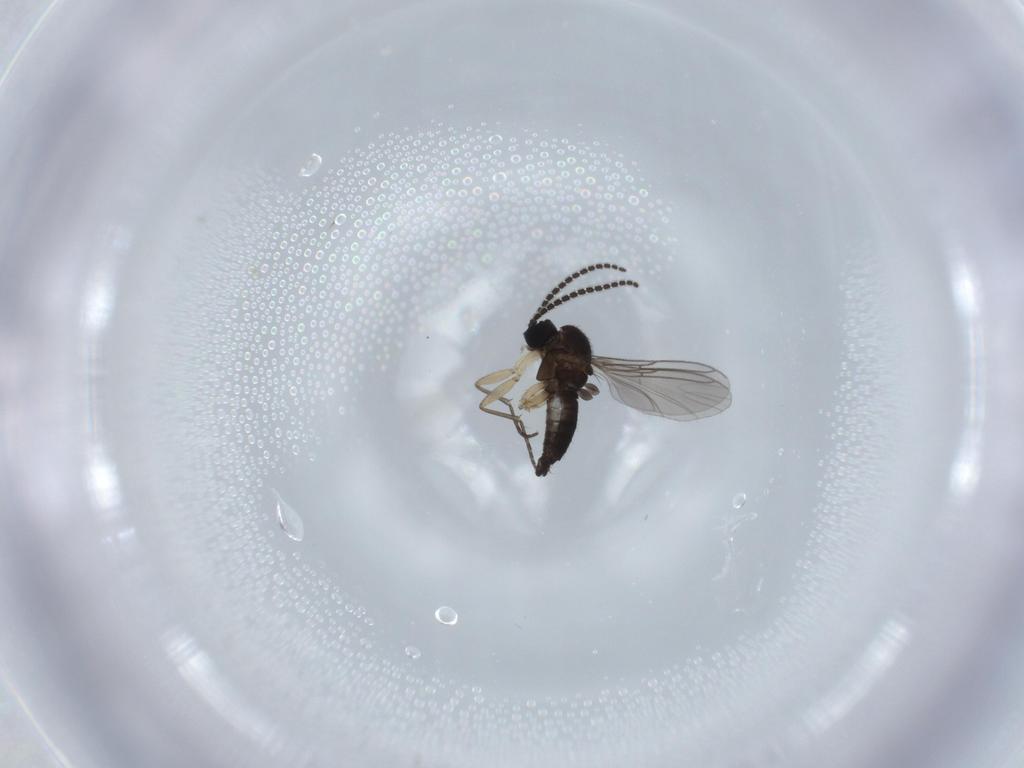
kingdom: Animalia
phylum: Arthropoda
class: Insecta
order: Diptera
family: Sciaridae
